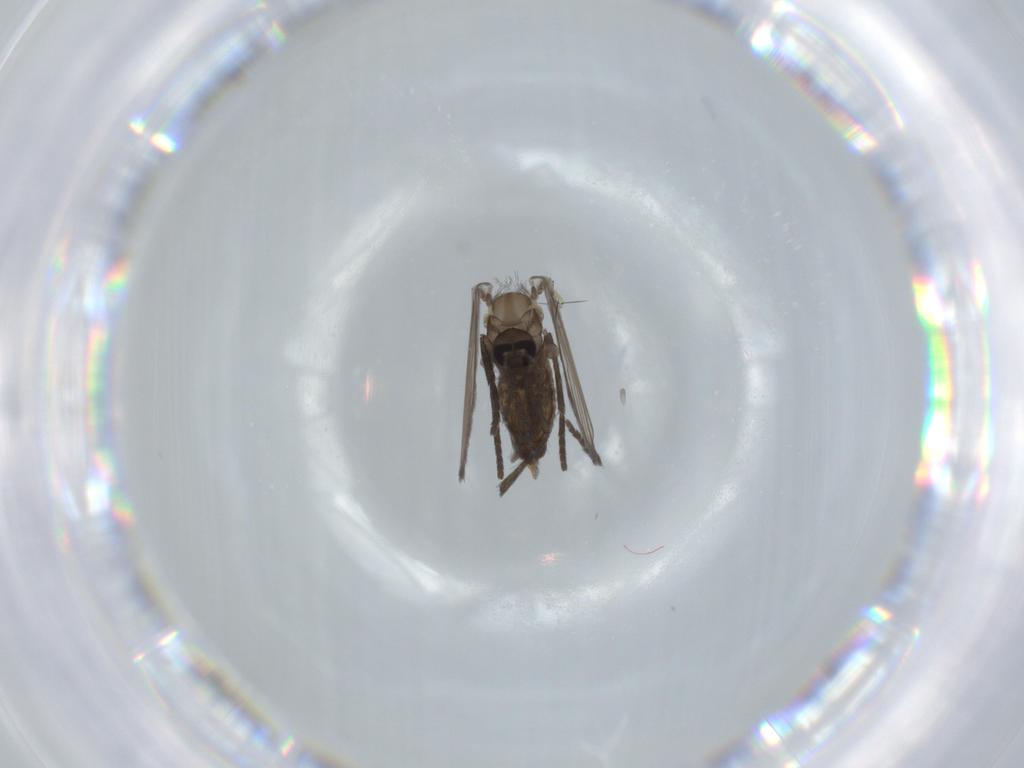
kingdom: Animalia
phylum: Arthropoda
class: Insecta
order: Diptera
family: Psychodidae
